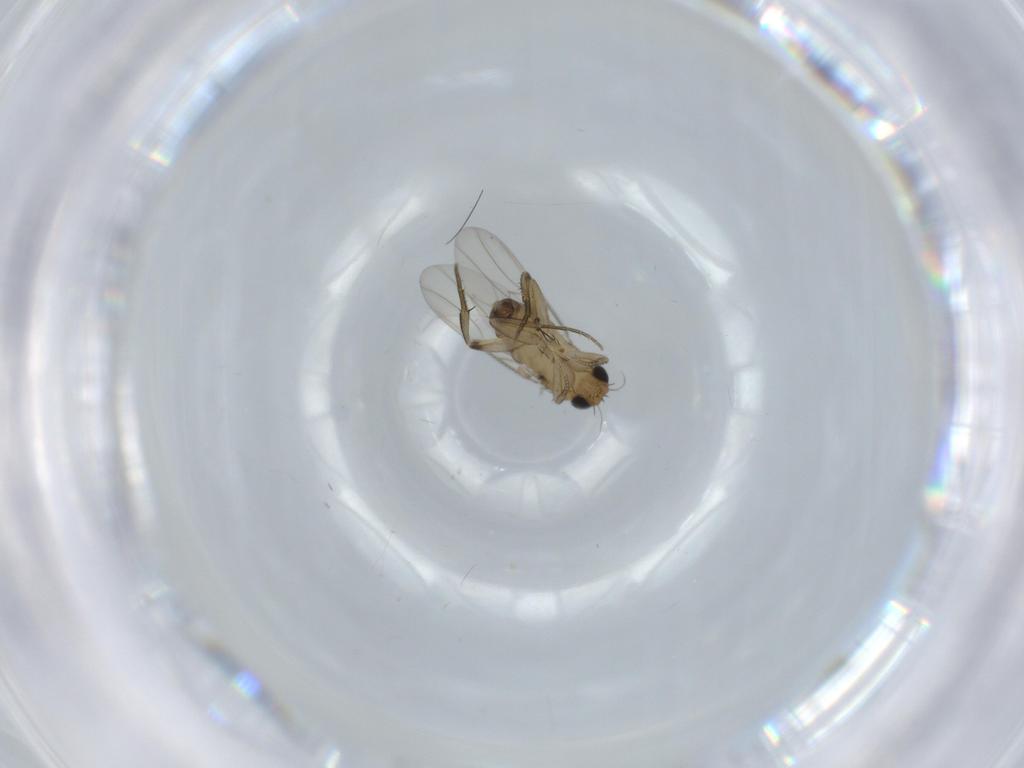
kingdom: Animalia
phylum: Arthropoda
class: Insecta
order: Diptera
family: Phoridae
